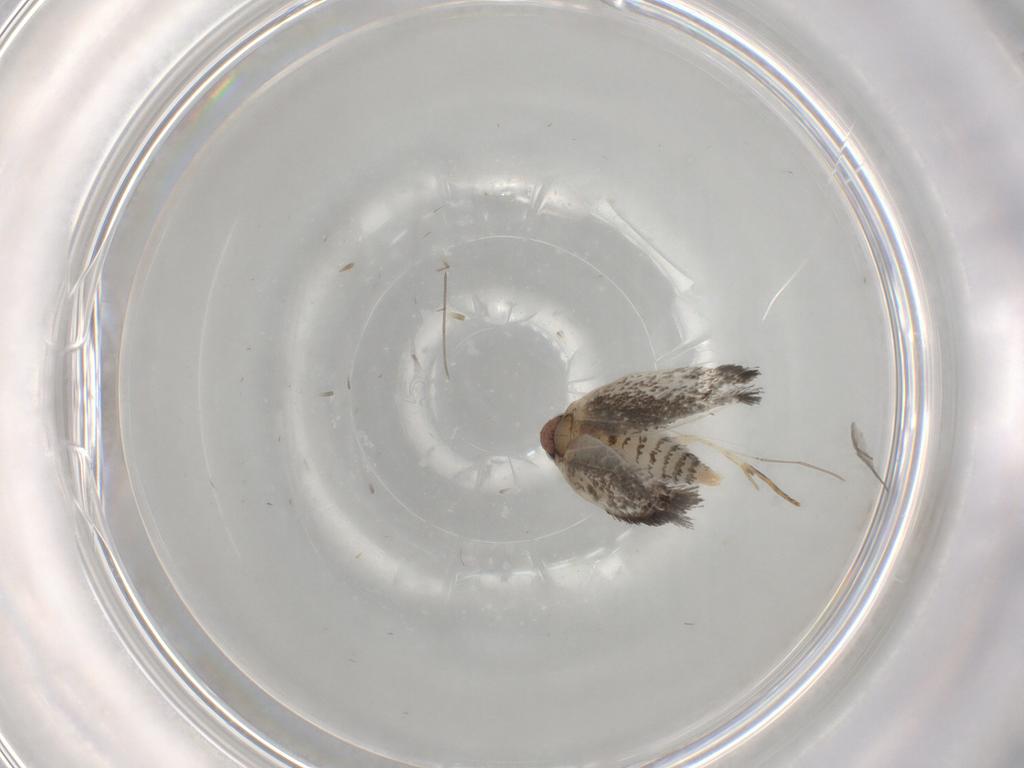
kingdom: Animalia
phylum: Arthropoda
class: Insecta
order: Lepidoptera
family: Tineidae
